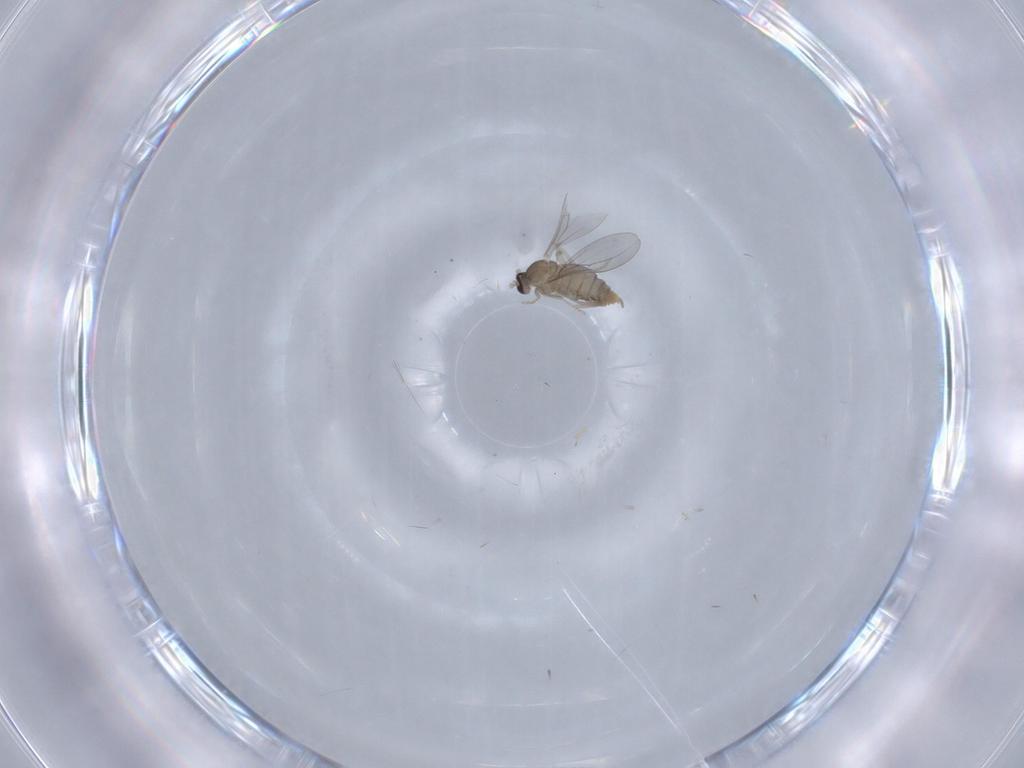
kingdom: Animalia
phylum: Arthropoda
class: Insecta
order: Diptera
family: Cecidomyiidae
